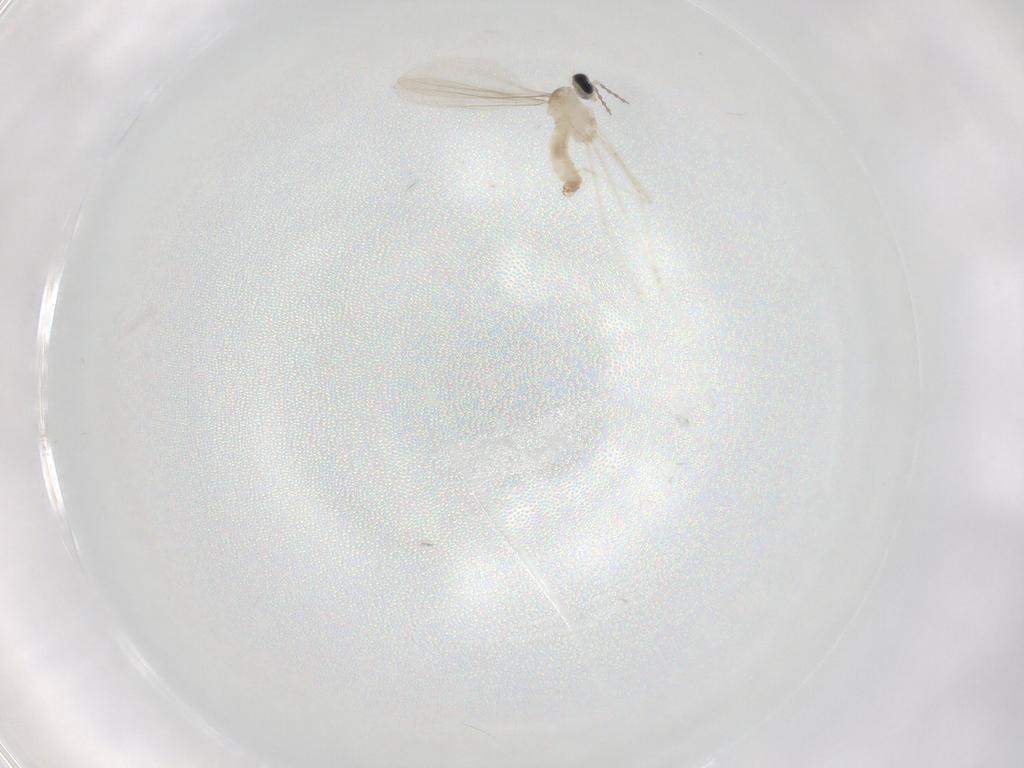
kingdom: Animalia
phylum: Arthropoda
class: Insecta
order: Diptera
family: Cecidomyiidae
